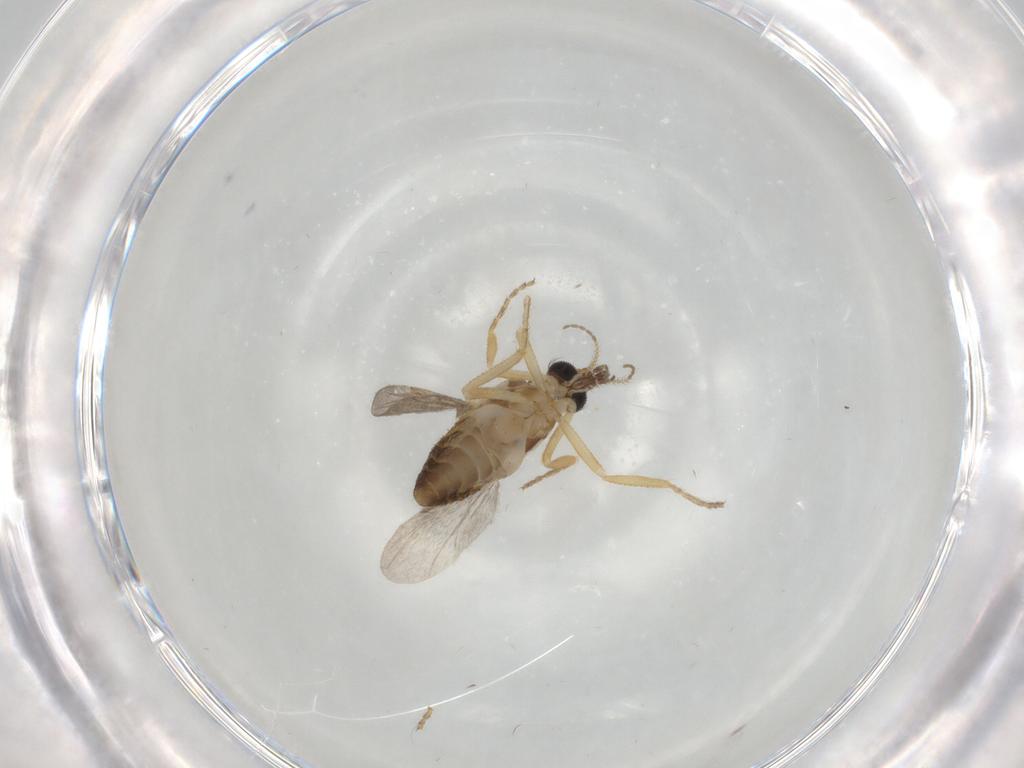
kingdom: Animalia
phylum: Arthropoda
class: Insecta
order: Diptera
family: Ceratopogonidae
